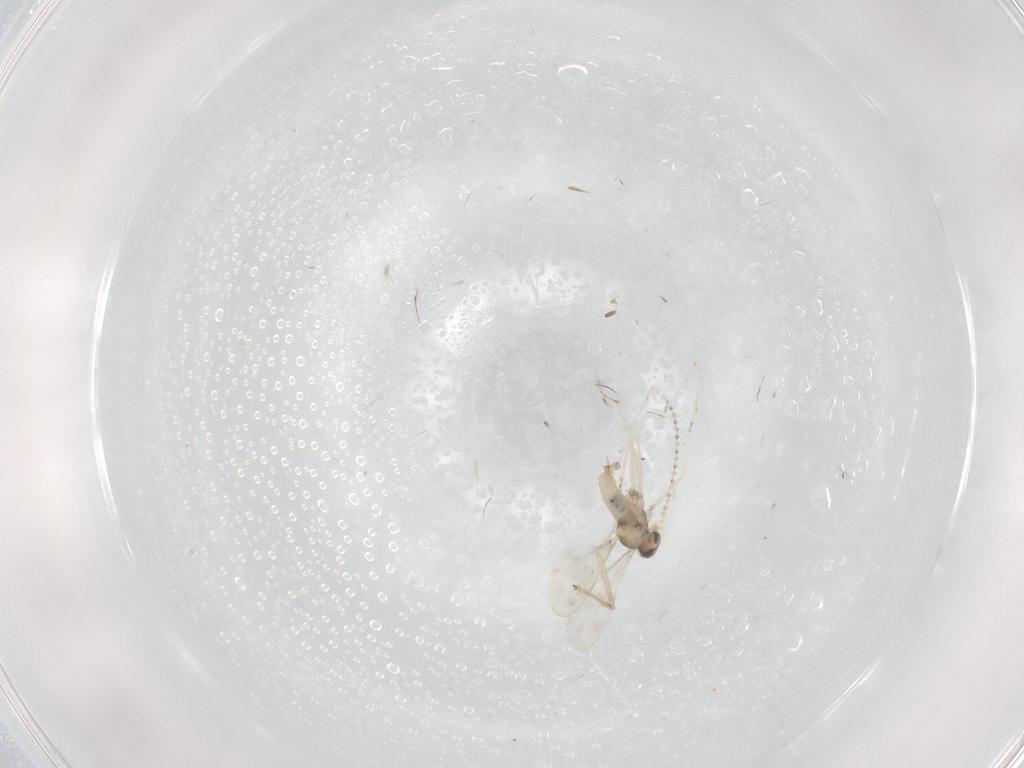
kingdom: Animalia
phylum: Arthropoda
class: Insecta
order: Diptera
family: Cecidomyiidae
